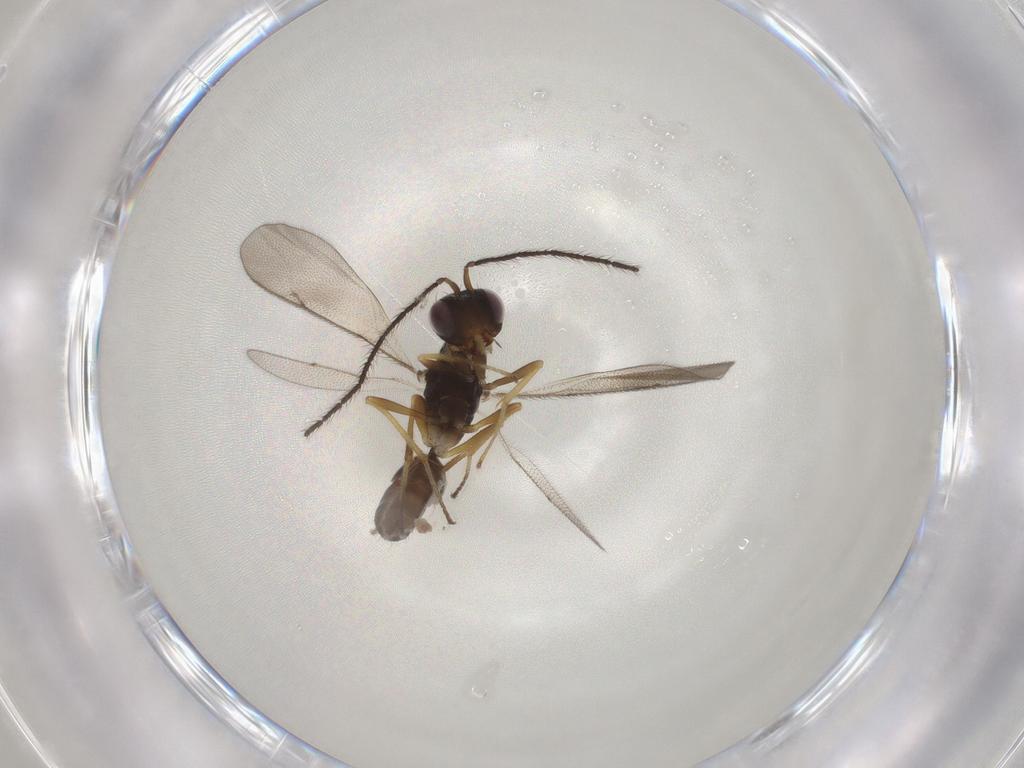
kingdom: Animalia
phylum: Arthropoda
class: Insecta
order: Hymenoptera
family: Diparidae
